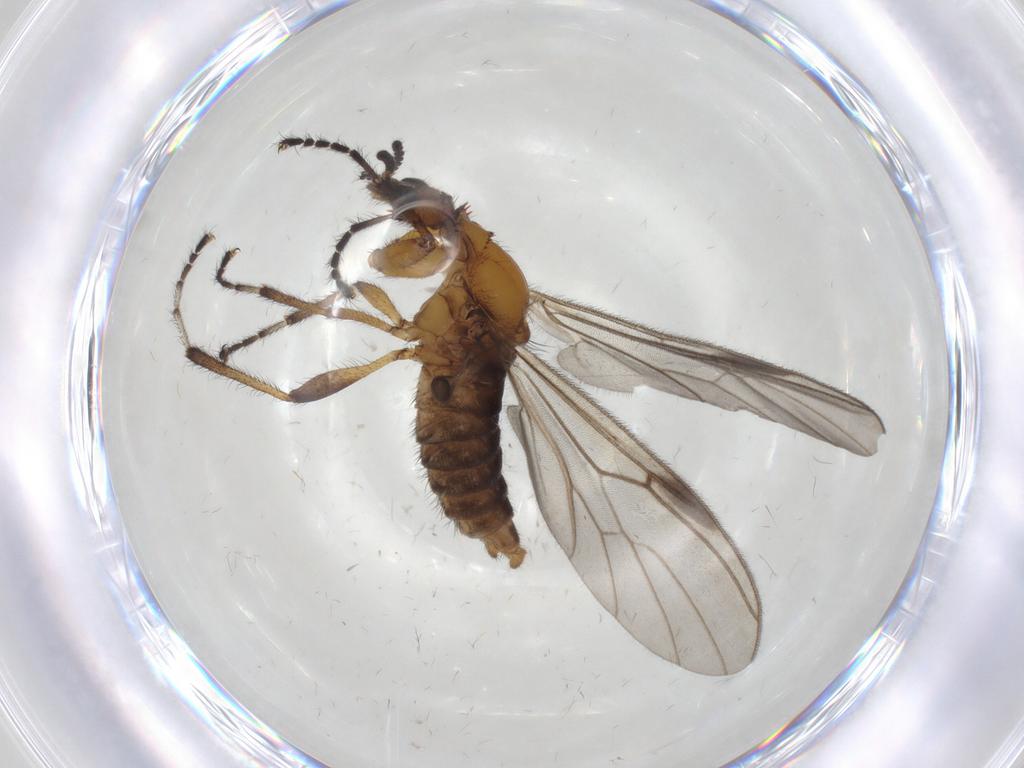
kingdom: Animalia
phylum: Arthropoda
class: Insecta
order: Diptera
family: Bibionidae
